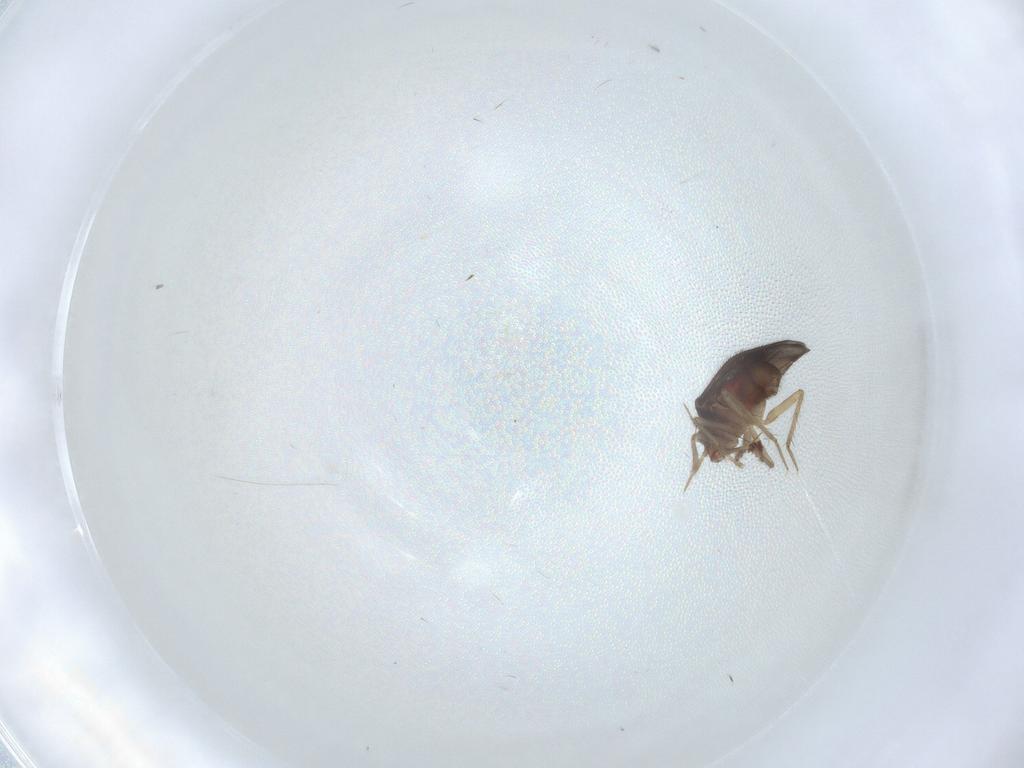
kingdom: Animalia
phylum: Arthropoda
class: Insecta
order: Hemiptera
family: Ceratocombidae
